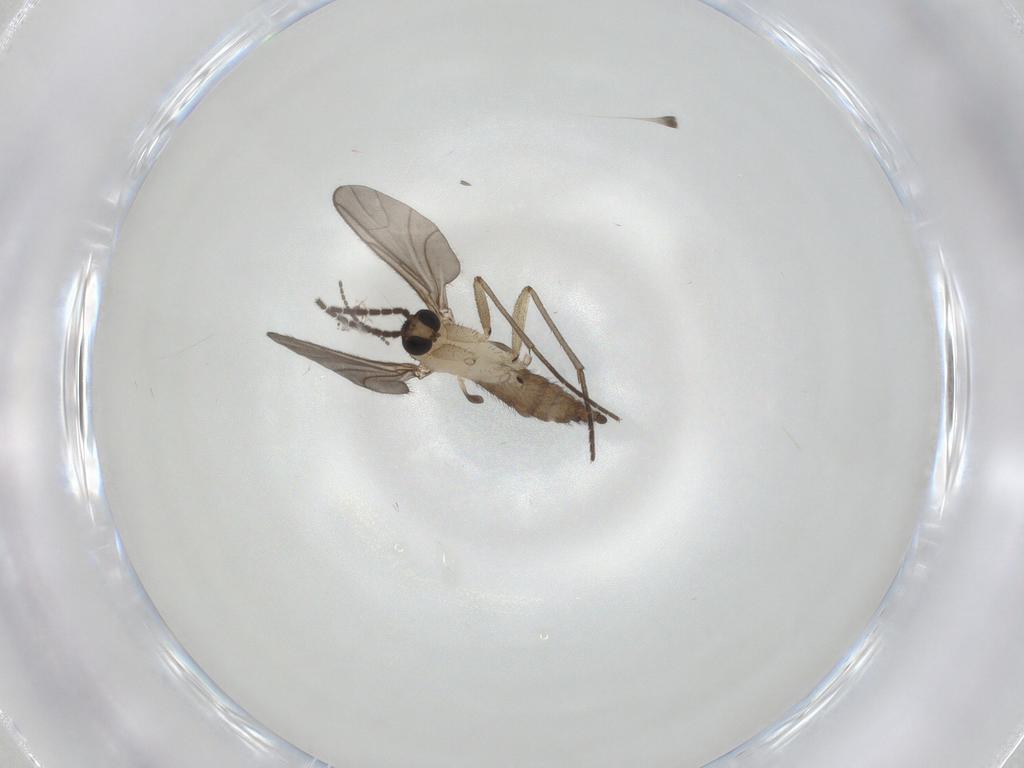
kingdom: Animalia
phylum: Arthropoda
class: Insecta
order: Diptera
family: Sciaridae
